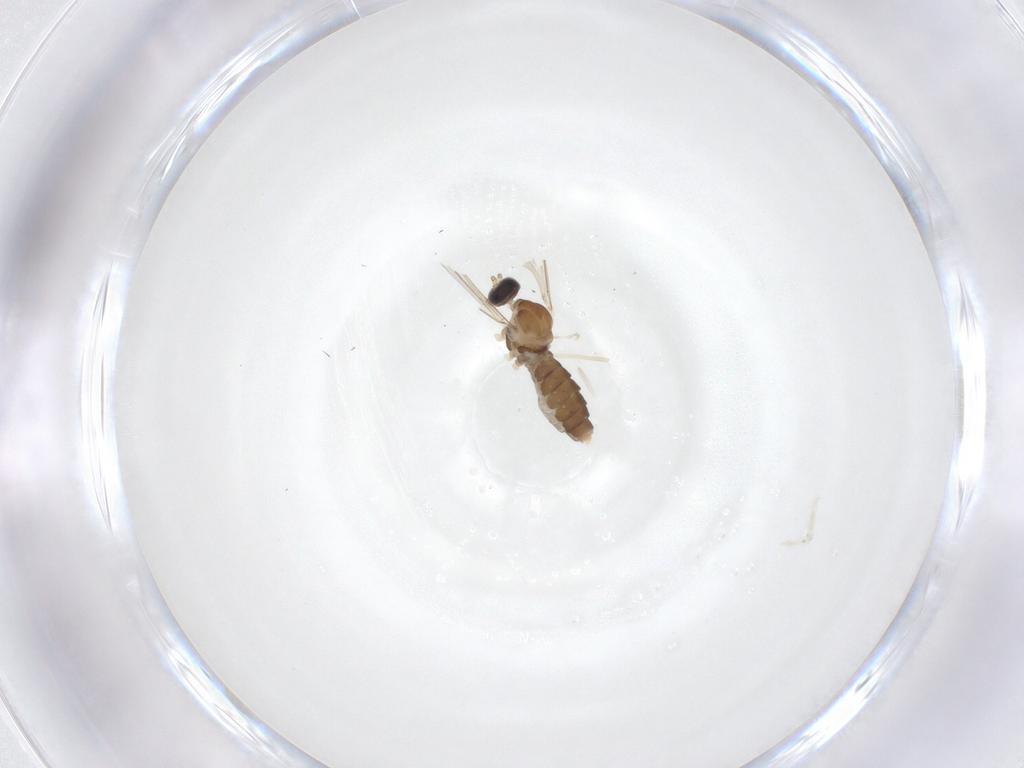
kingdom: Animalia
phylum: Arthropoda
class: Insecta
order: Diptera
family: Cecidomyiidae
